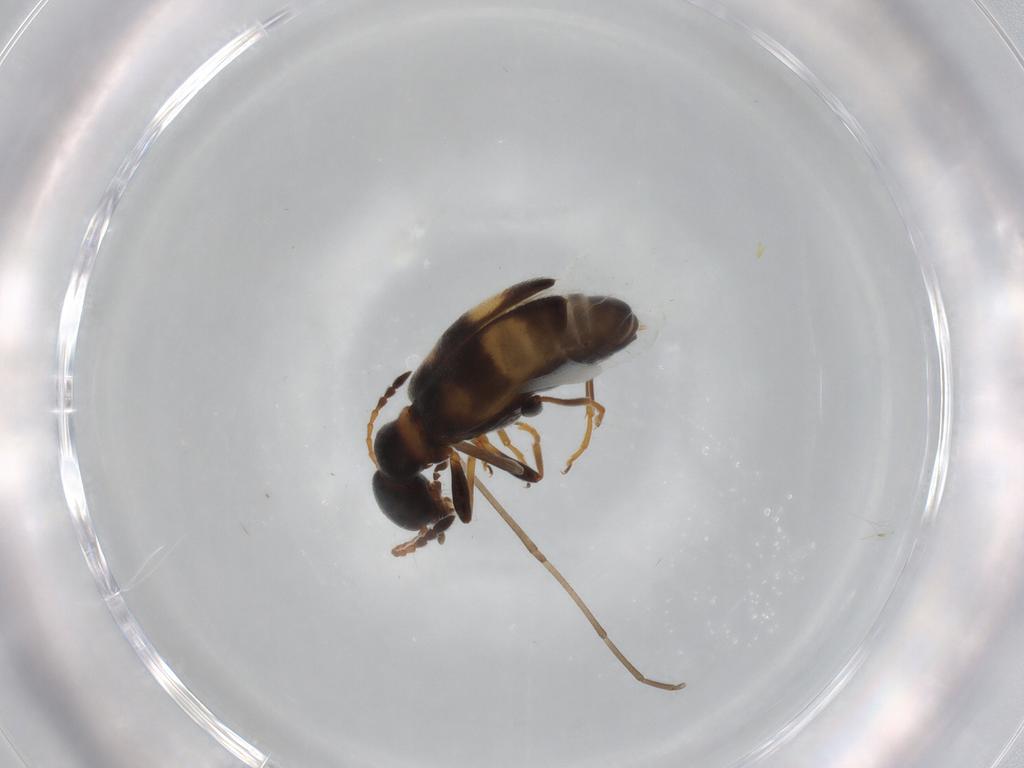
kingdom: Animalia
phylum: Arthropoda
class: Insecta
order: Coleoptera
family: Anthicidae
